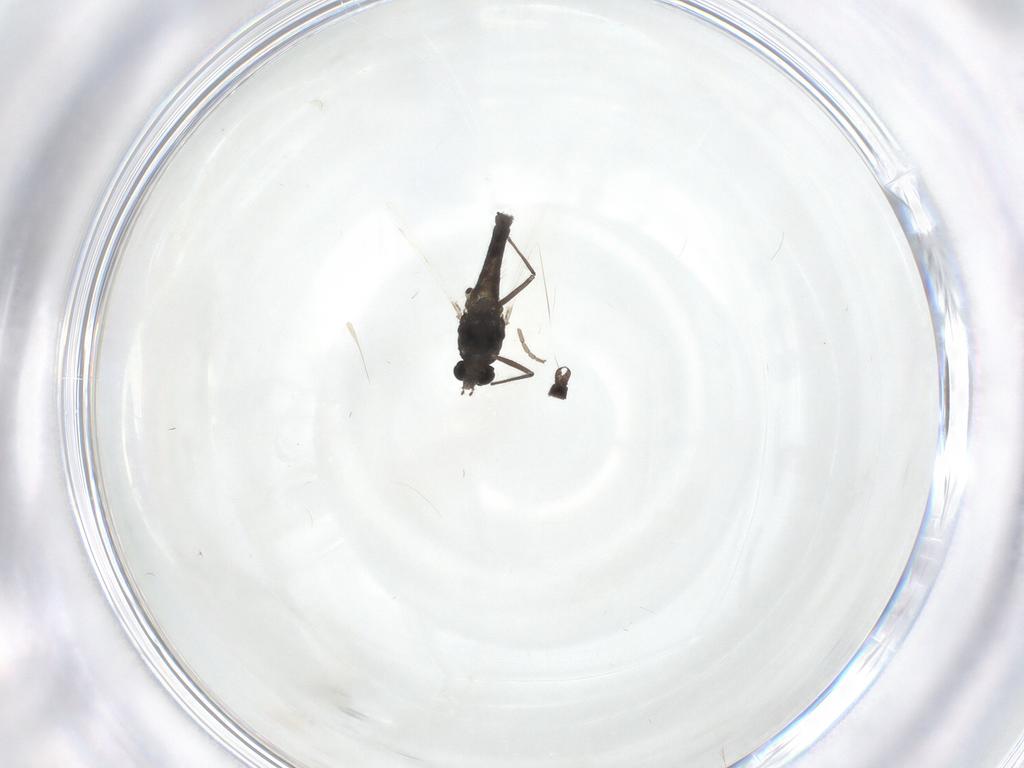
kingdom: Animalia
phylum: Arthropoda
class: Insecta
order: Diptera
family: Chironomidae
